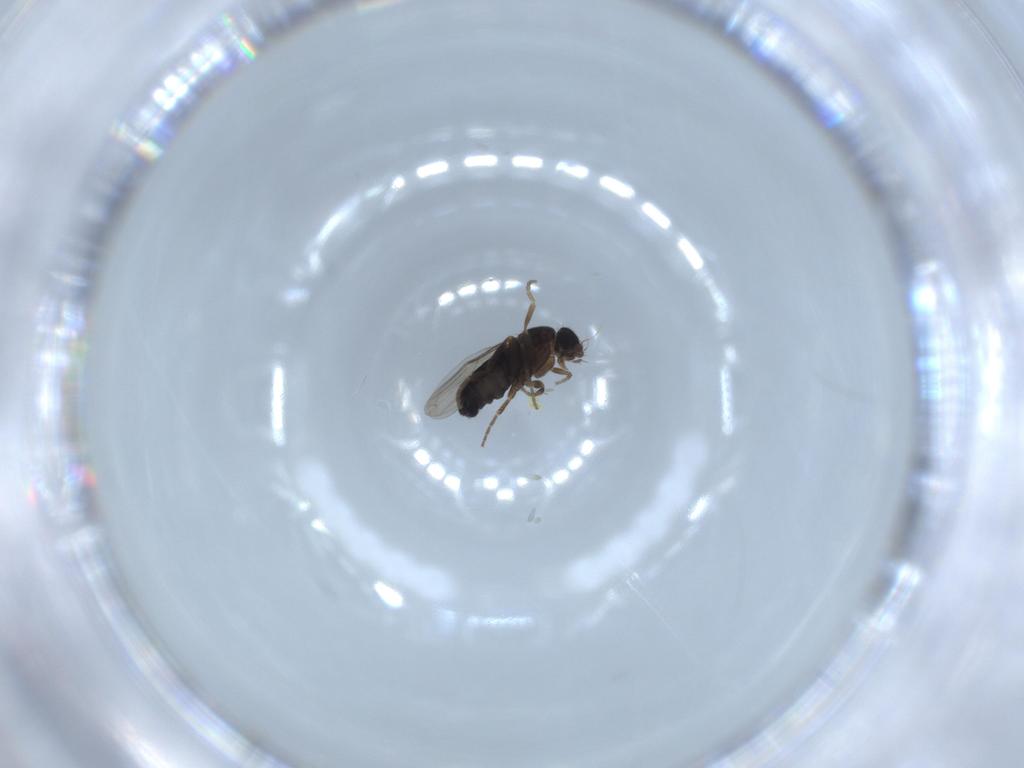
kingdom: Animalia
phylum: Arthropoda
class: Insecta
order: Diptera
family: Phoridae
